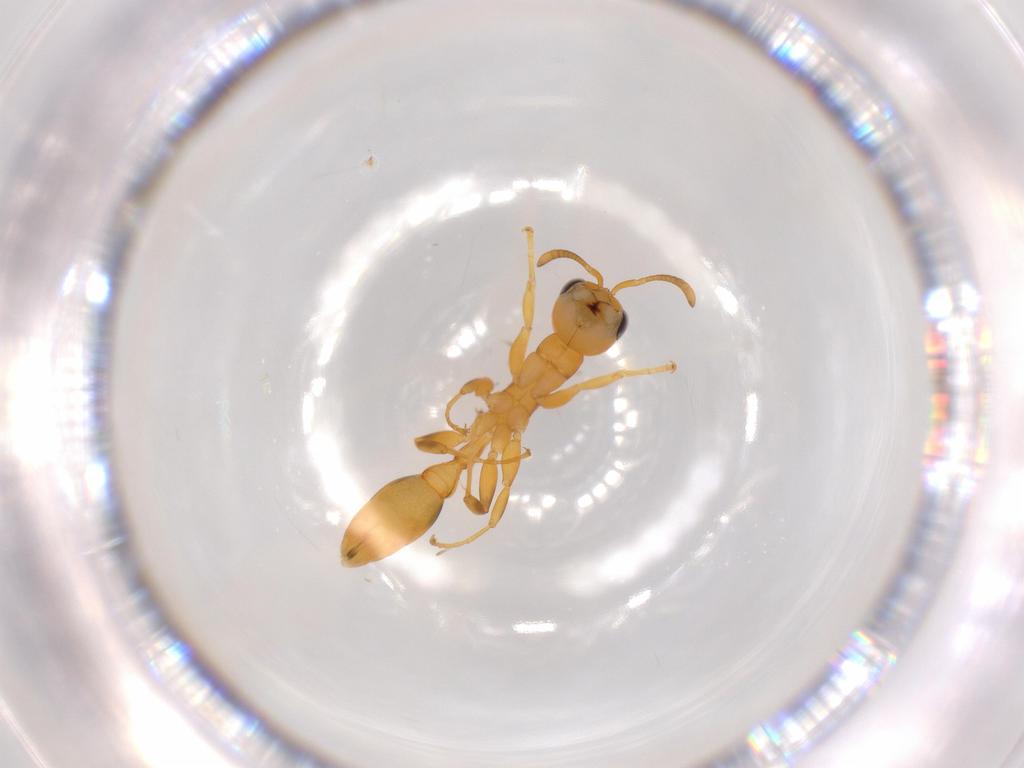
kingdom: Animalia
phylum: Arthropoda
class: Insecta
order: Hymenoptera
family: Formicidae
